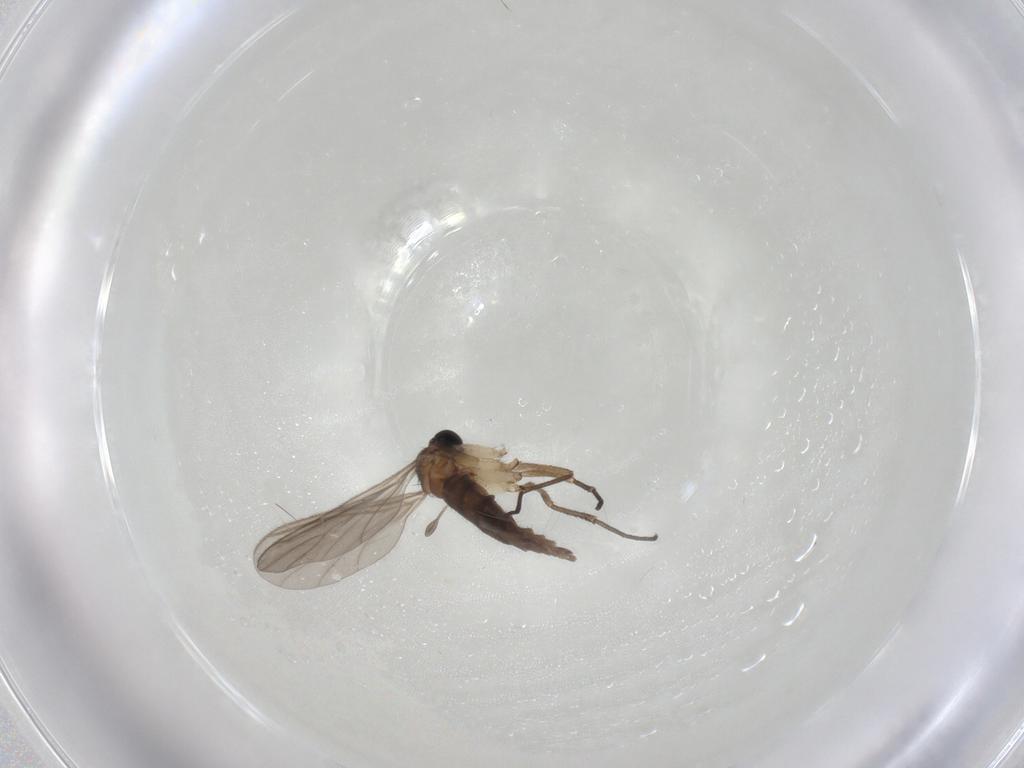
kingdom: Animalia
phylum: Arthropoda
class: Insecta
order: Diptera
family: Sciaridae
